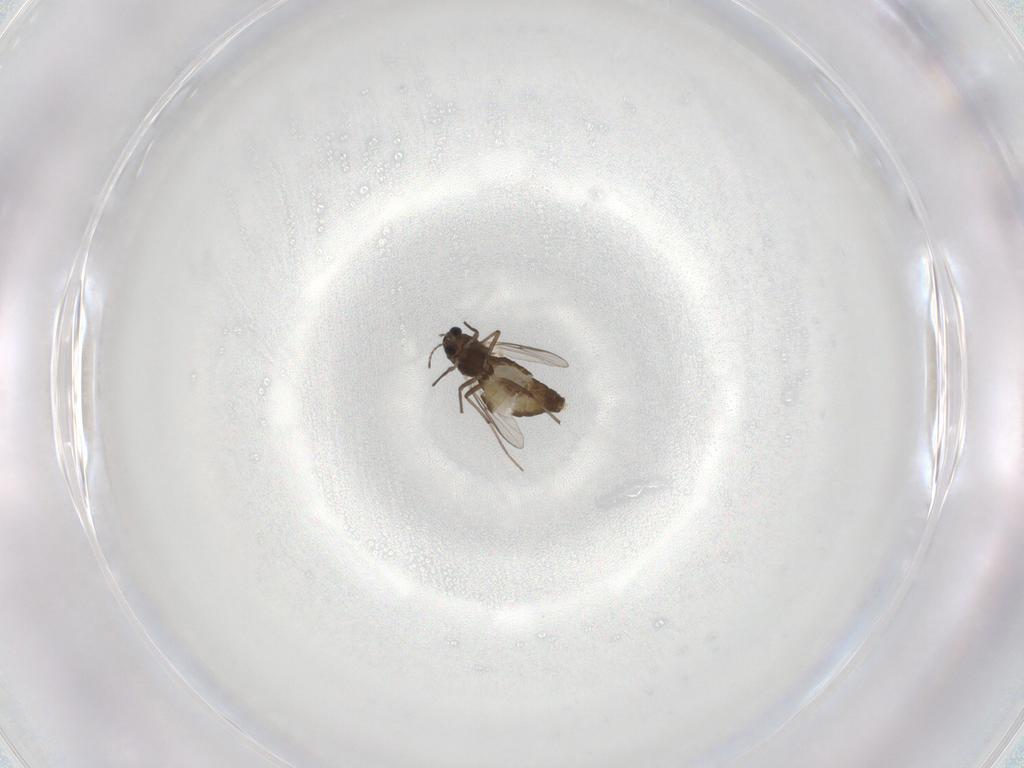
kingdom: Animalia
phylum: Arthropoda
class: Insecta
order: Diptera
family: Chironomidae
